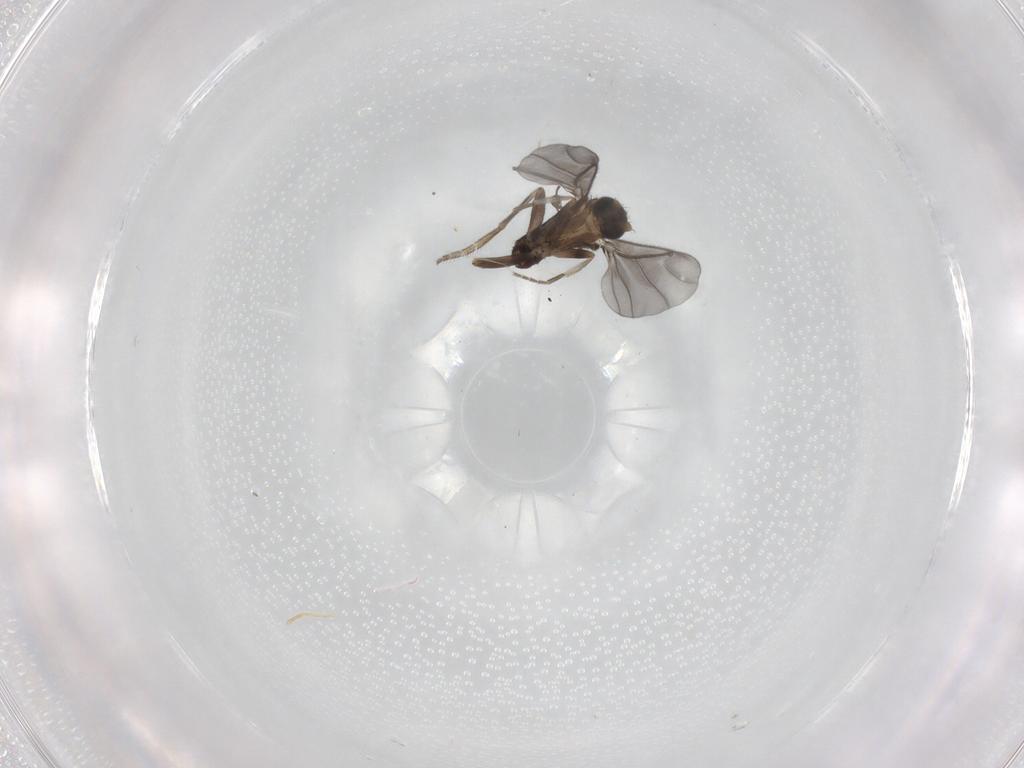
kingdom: Animalia
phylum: Arthropoda
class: Insecta
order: Diptera
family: Phoridae
